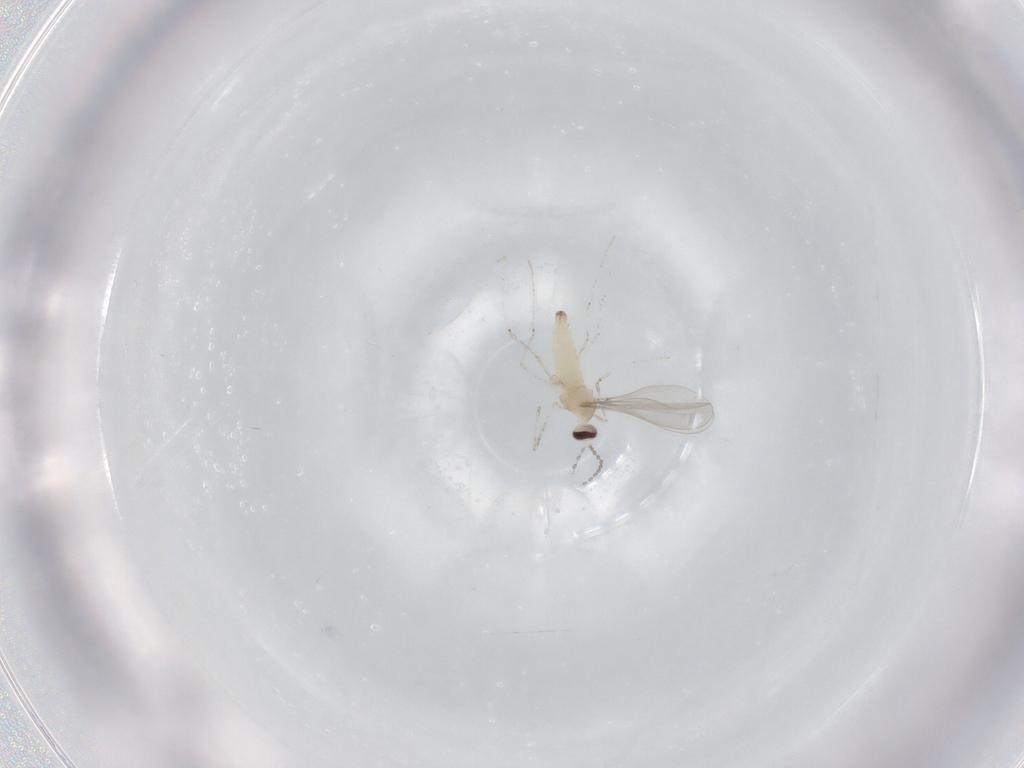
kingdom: Animalia
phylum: Arthropoda
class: Insecta
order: Diptera
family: Cecidomyiidae
